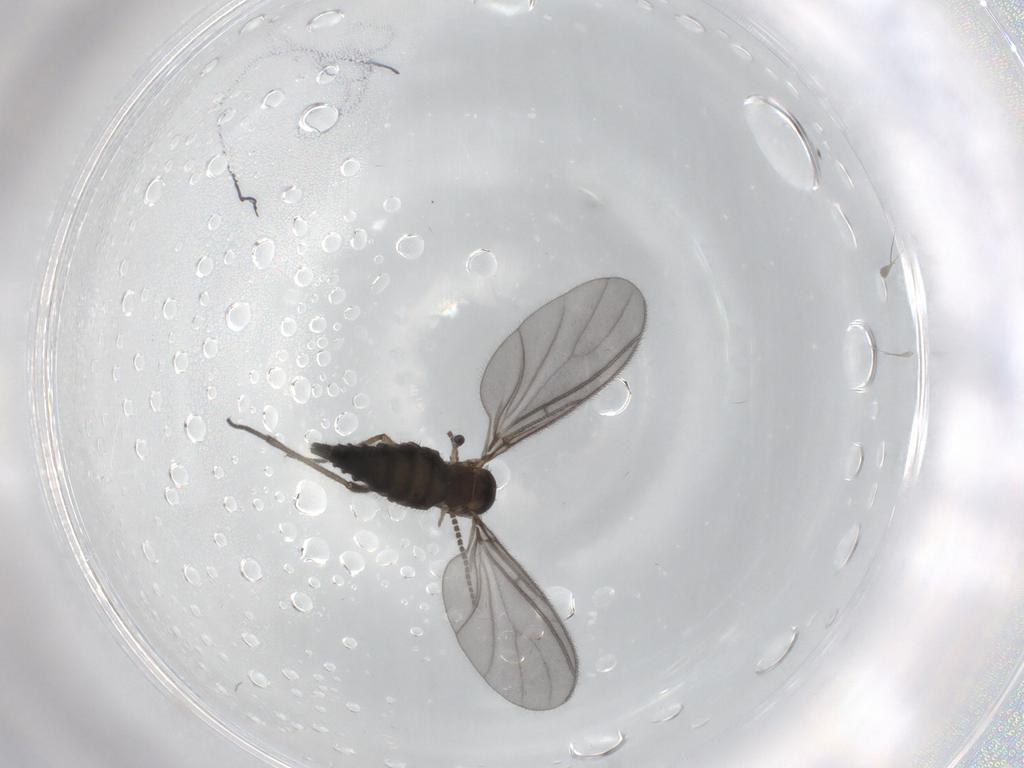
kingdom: Animalia
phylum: Arthropoda
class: Insecta
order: Diptera
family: Sciaridae
